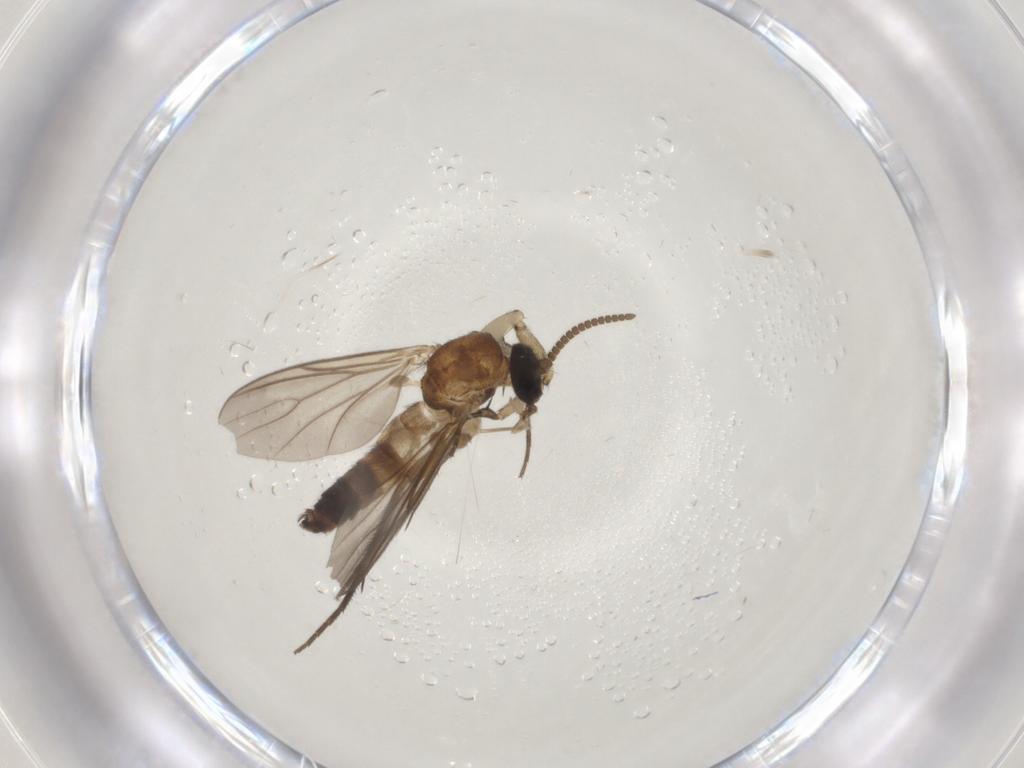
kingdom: Animalia
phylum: Arthropoda
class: Insecta
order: Diptera
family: Mycetophilidae
